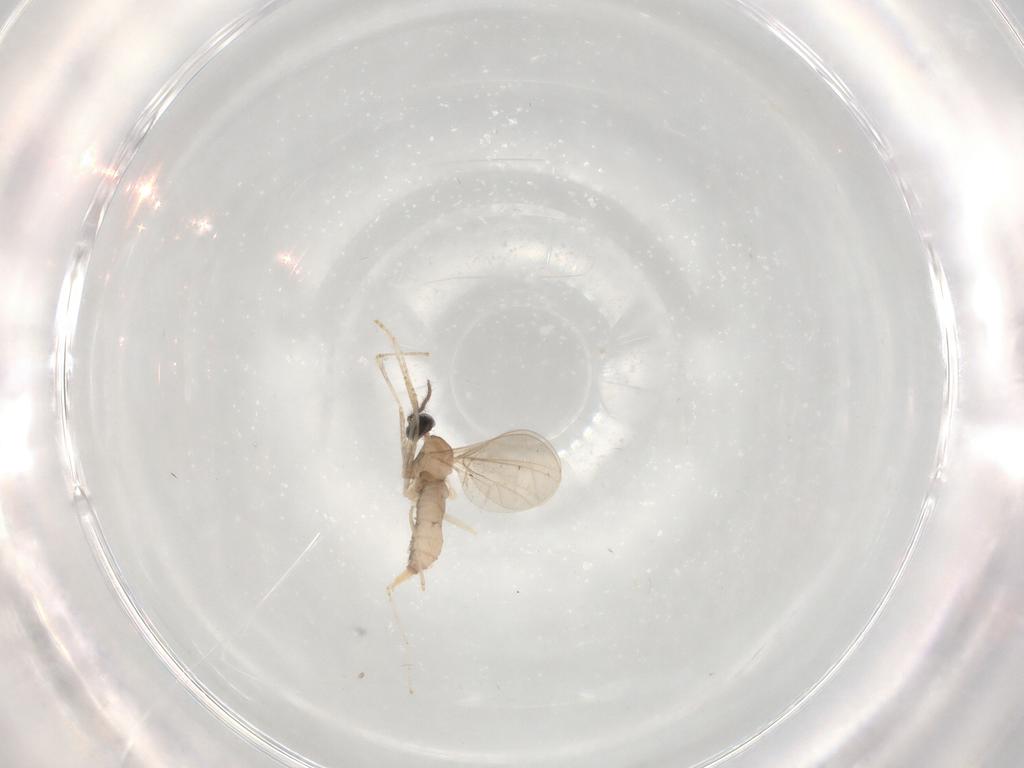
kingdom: Animalia
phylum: Arthropoda
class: Insecta
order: Diptera
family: Cecidomyiidae
